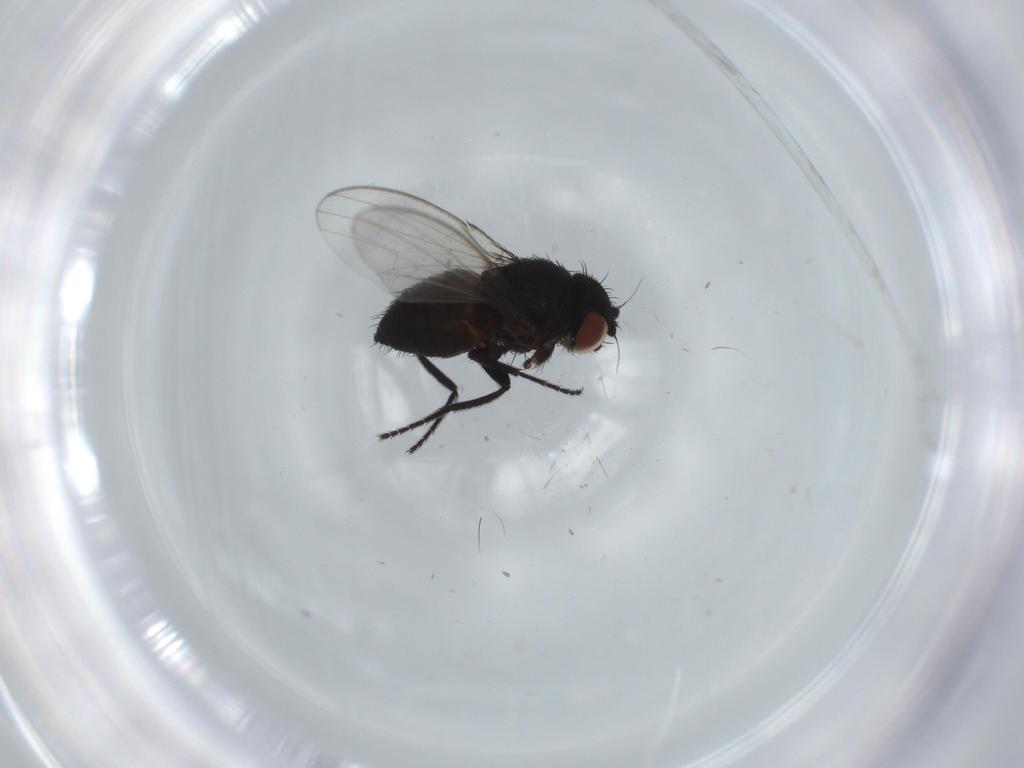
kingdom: Animalia
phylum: Arthropoda
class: Insecta
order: Diptera
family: Milichiidae
